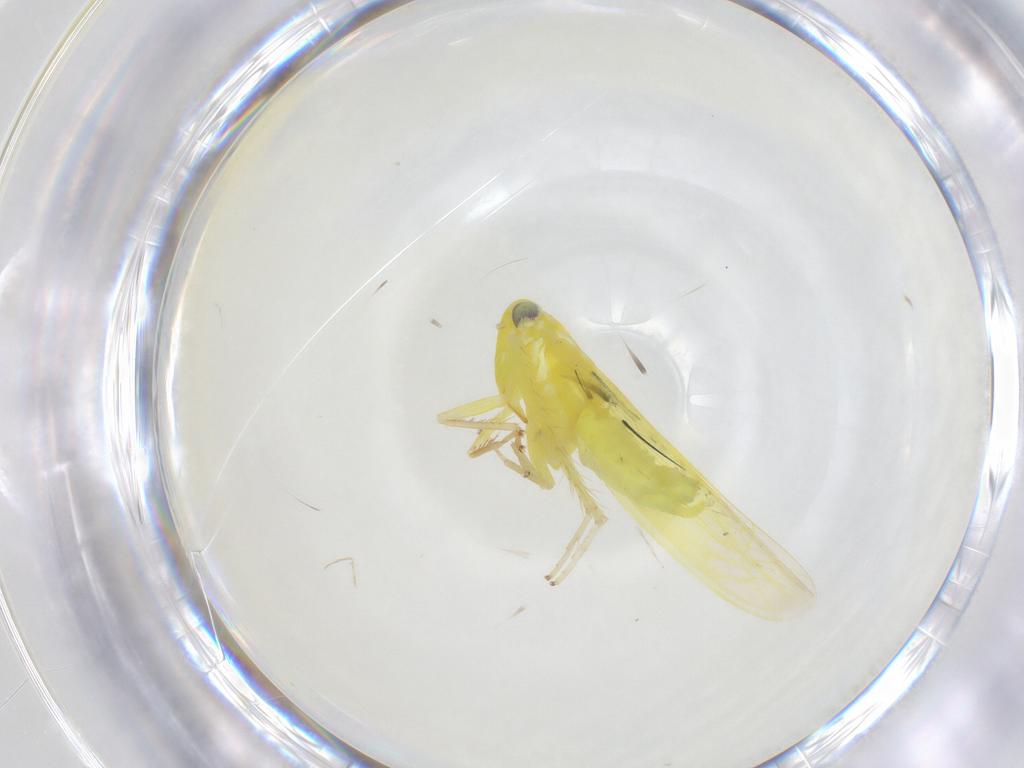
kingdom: Animalia
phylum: Arthropoda
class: Insecta
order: Hemiptera
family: Cicadellidae
